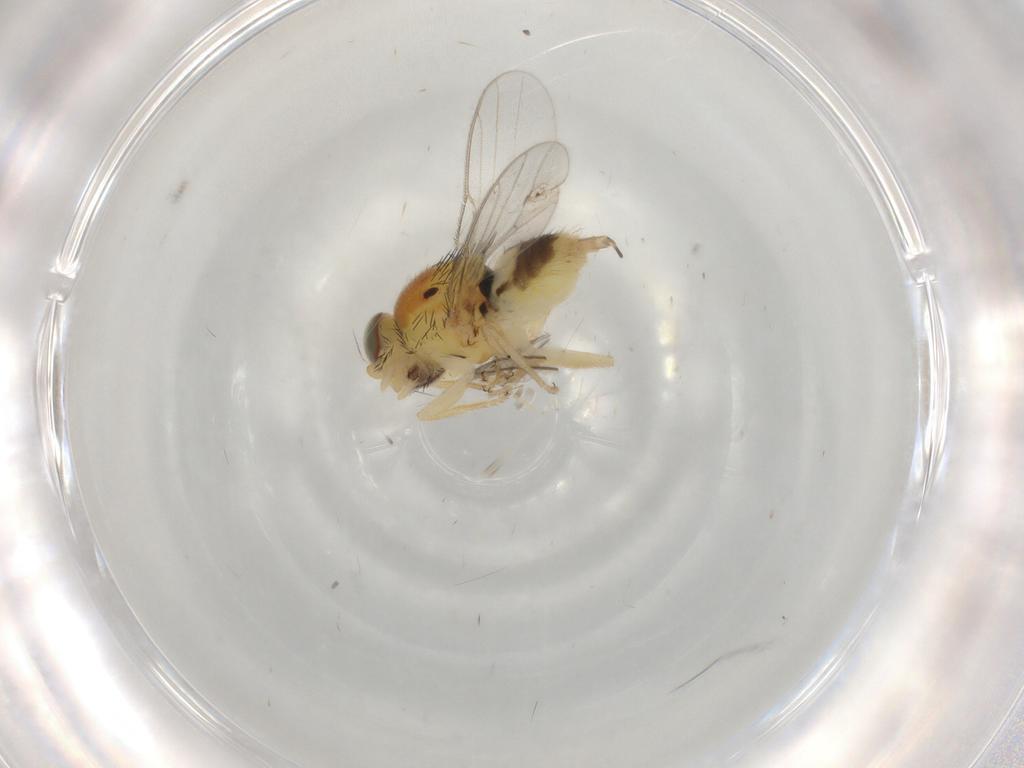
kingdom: Animalia
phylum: Arthropoda
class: Insecta
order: Diptera
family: Chloropidae
